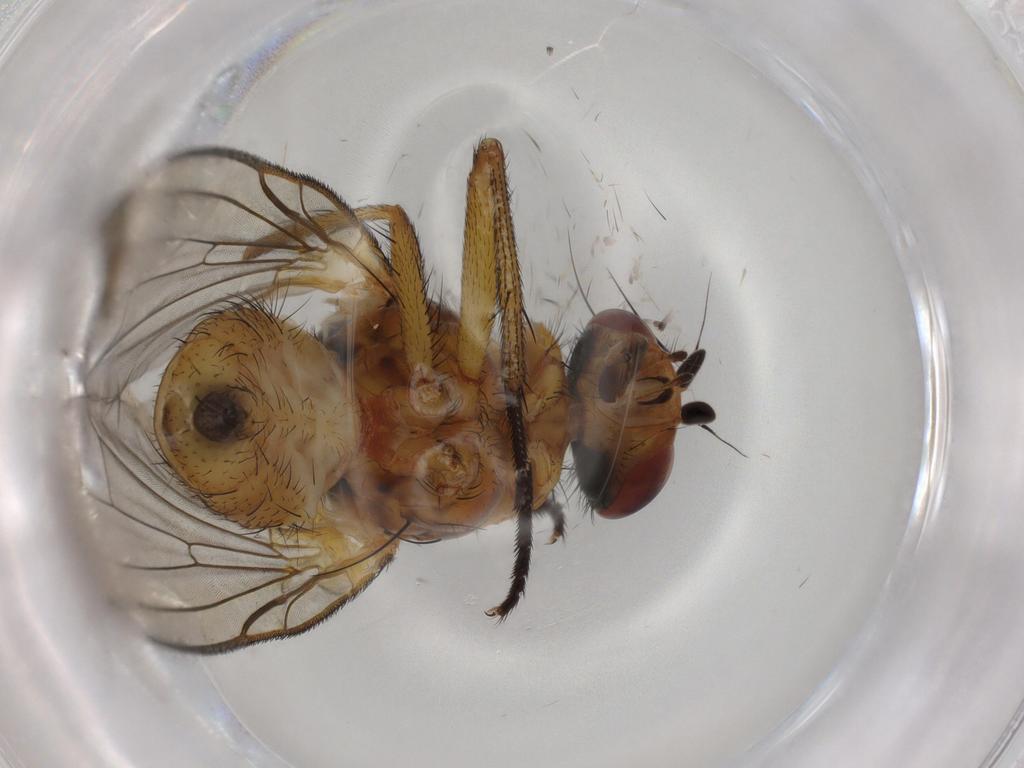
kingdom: Animalia
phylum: Arthropoda
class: Insecta
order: Diptera
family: Anthomyiidae
